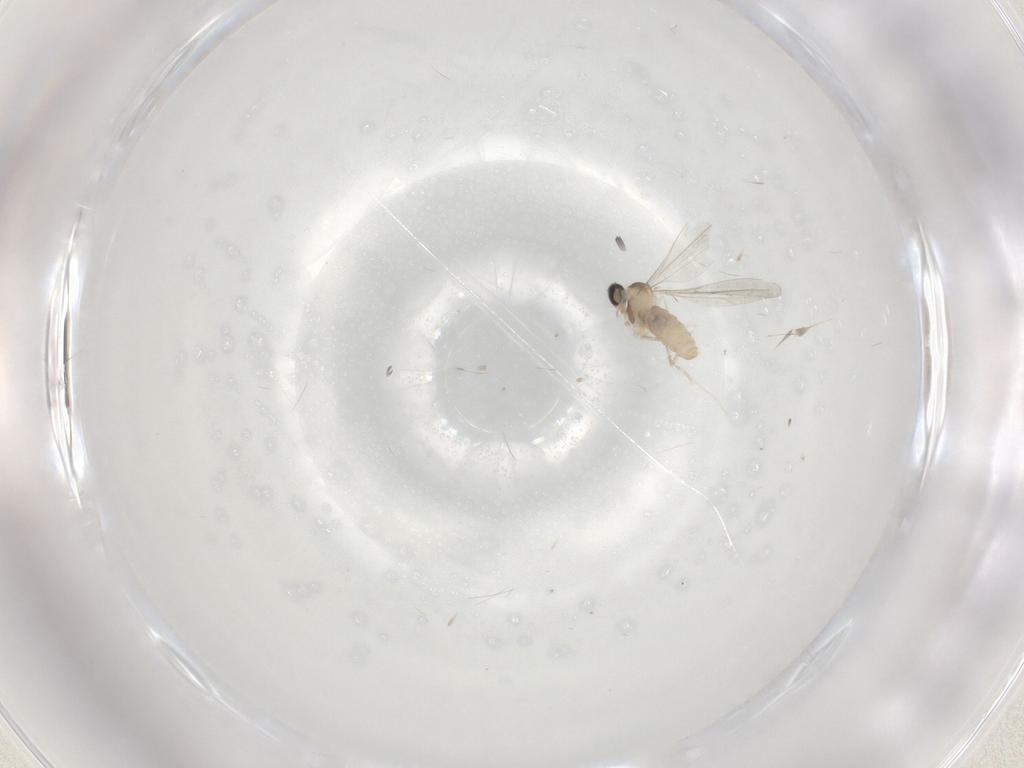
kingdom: Animalia
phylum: Arthropoda
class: Insecta
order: Diptera
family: Cecidomyiidae
